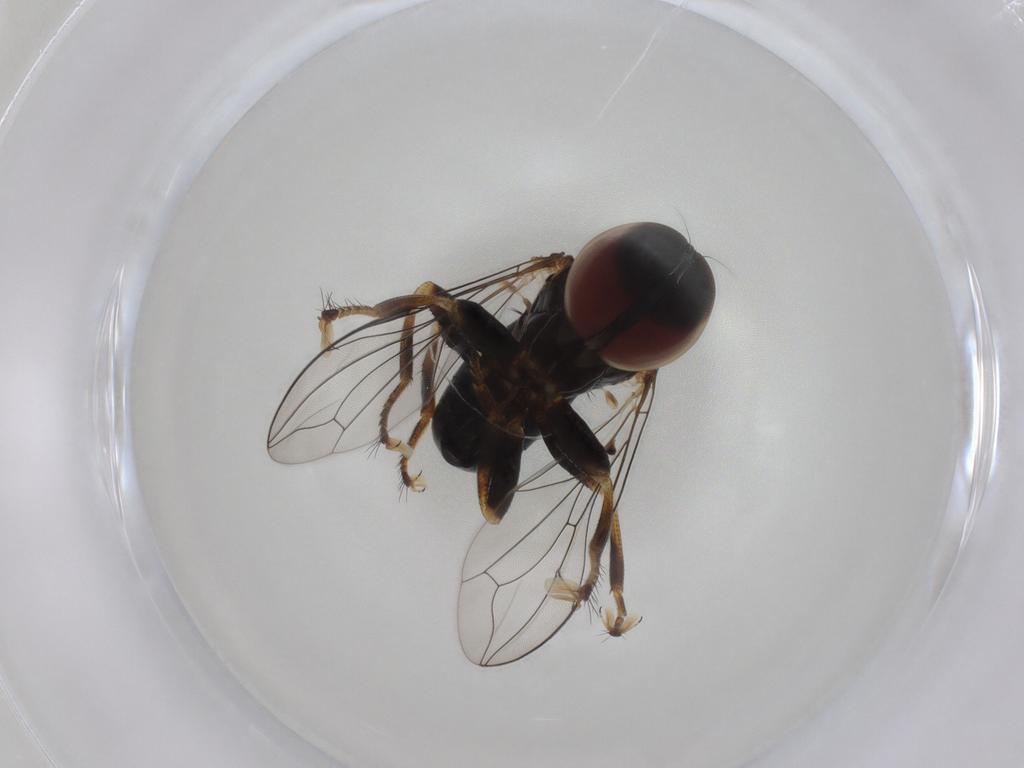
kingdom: Animalia
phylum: Arthropoda
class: Insecta
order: Diptera
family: Pipunculidae
